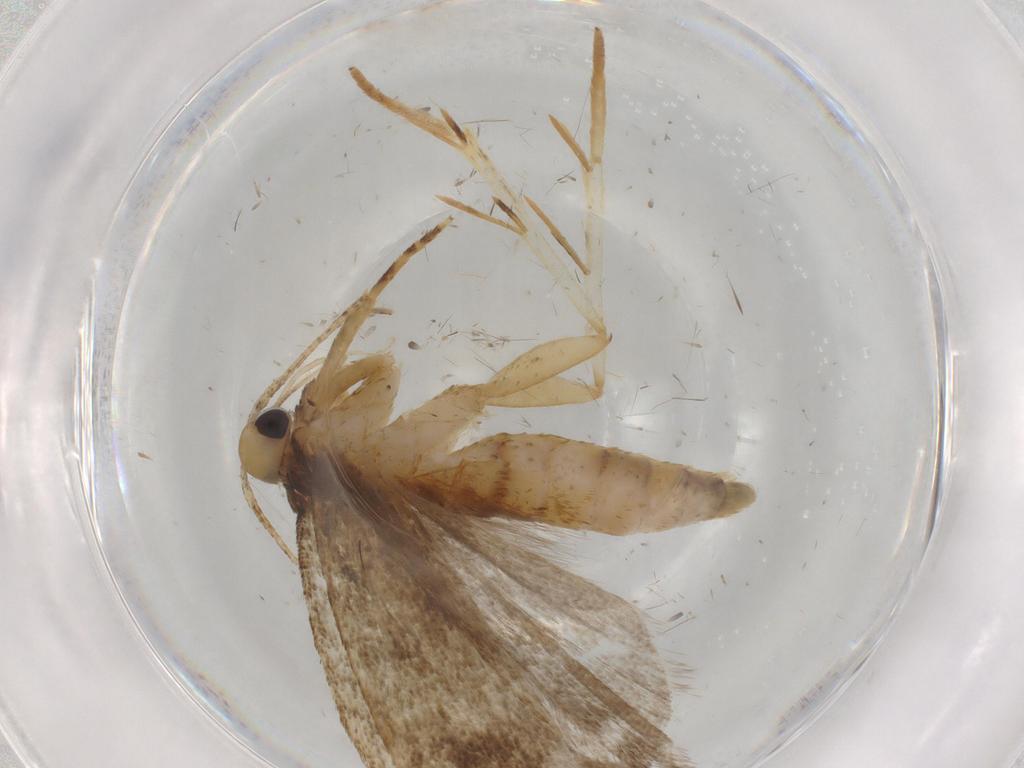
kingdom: Animalia
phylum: Arthropoda
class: Insecta
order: Lepidoptera
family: Autostichidae
